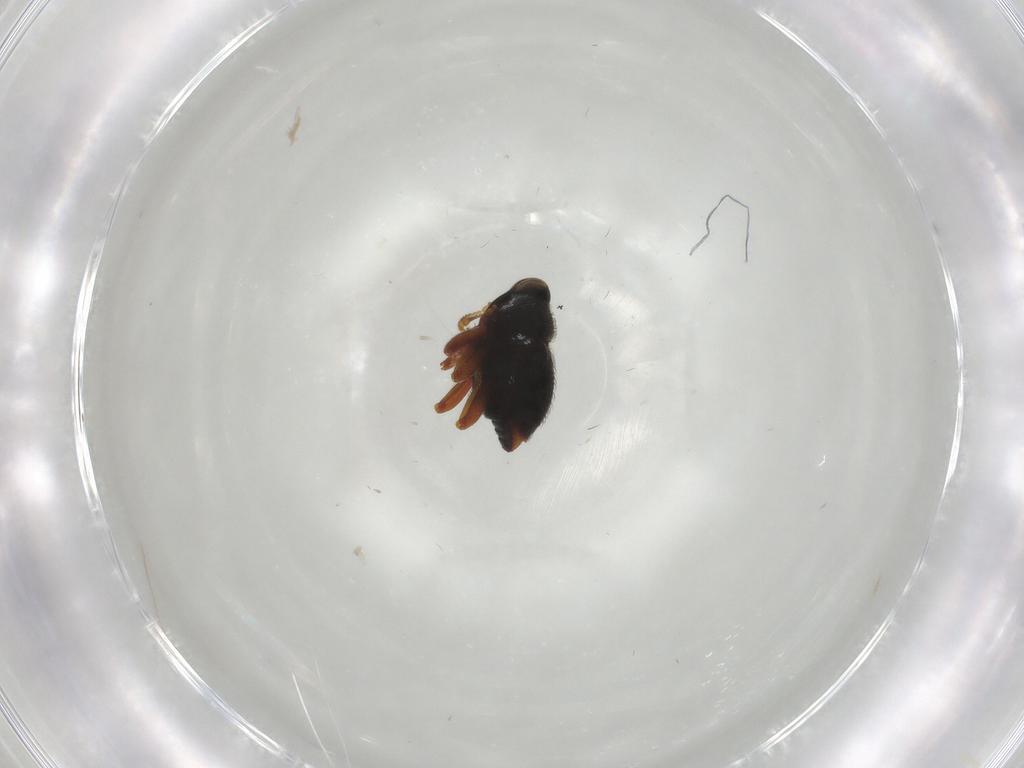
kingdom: Animalia
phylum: Arthropoda
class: Insecta
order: Coleoptera
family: Curculionidae
